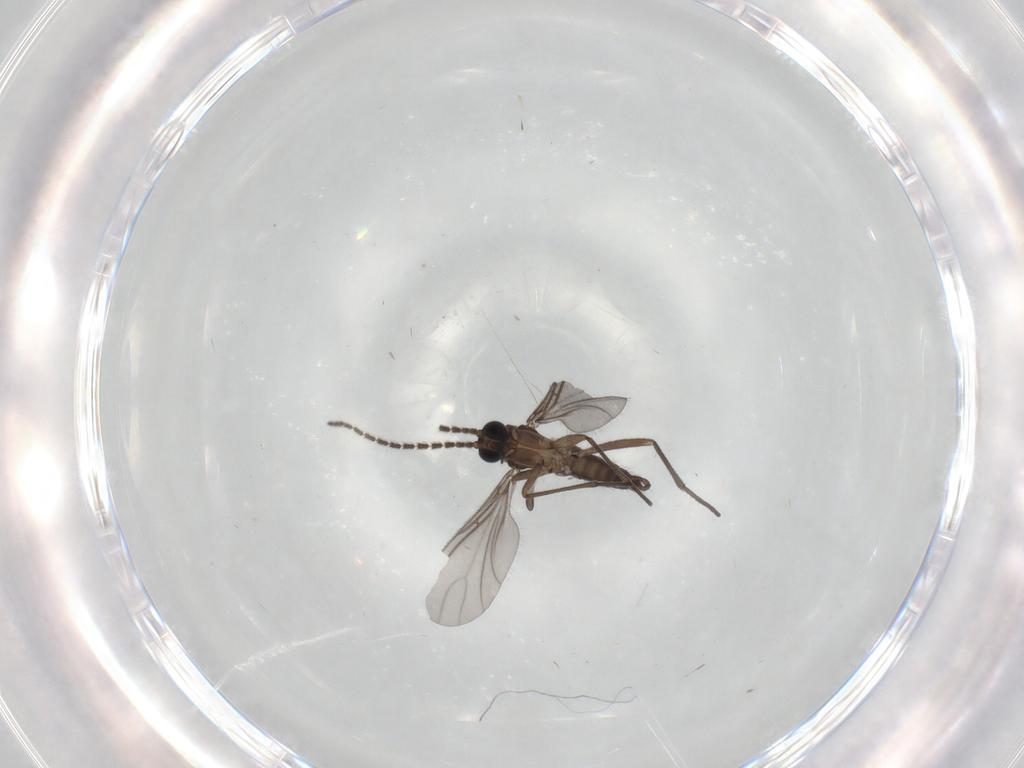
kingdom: Animalia
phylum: Arthropoda
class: Insecta
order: Diptera
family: Sciaridae
